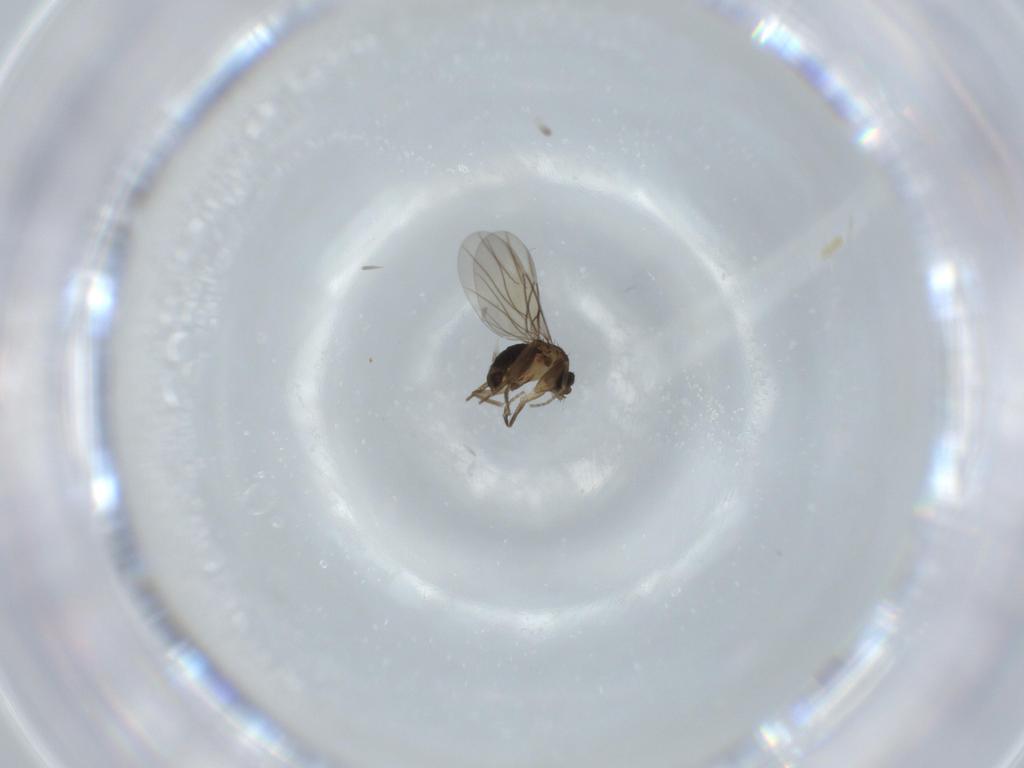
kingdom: Animalia
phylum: Arthropoda
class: Insecta
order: Diptera
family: Phoridae
